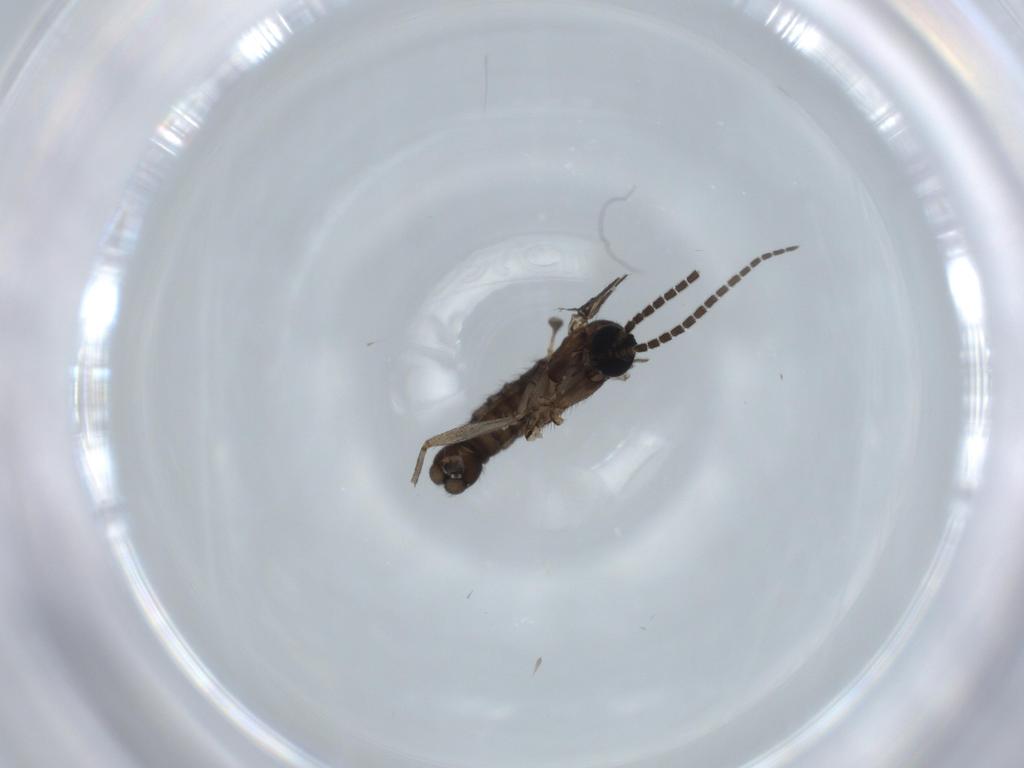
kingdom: Animalia
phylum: Arthropoda
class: Insecta
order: Diptera
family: Sciaridae
